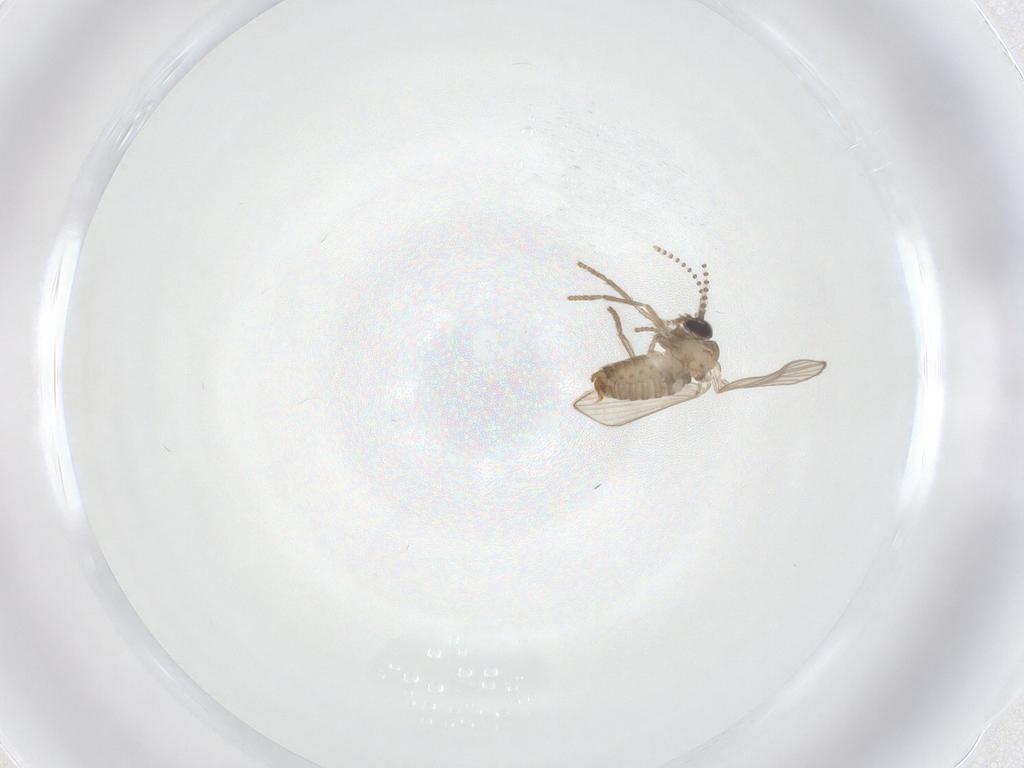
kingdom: Animalia
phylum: Arthropoda
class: Insecta
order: Diptera
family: Psychodidae
